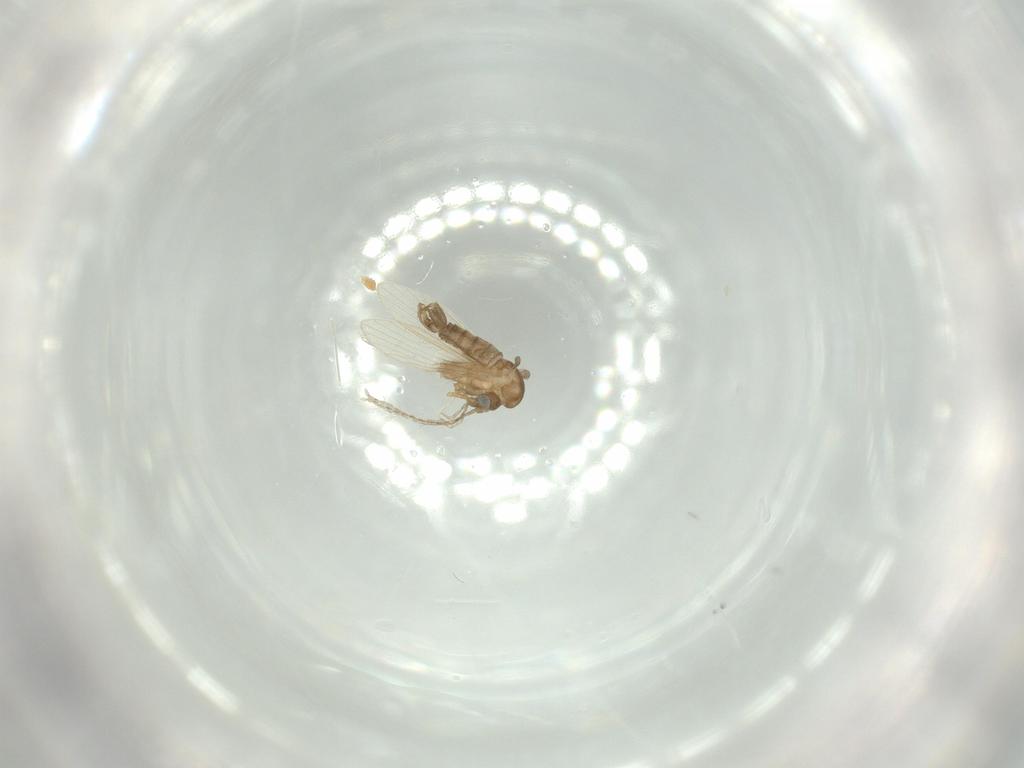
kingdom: Animalia
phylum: Arthropoda
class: Insecta
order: Diptera
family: Psychodidae
